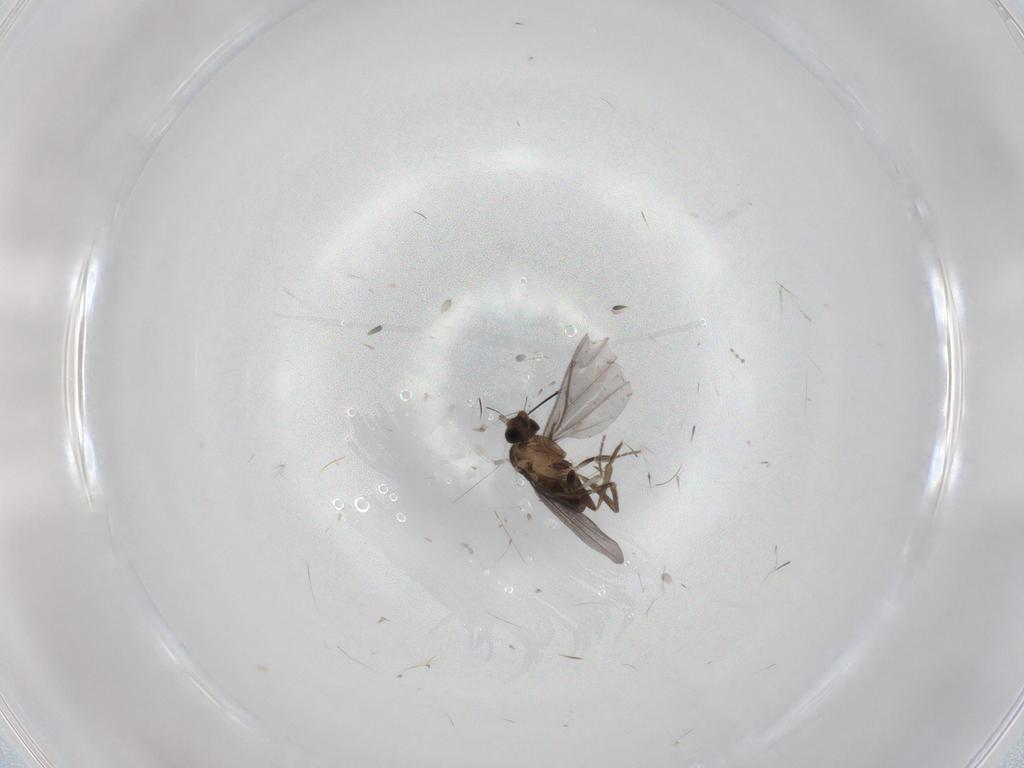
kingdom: Animalia
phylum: Arthropoda
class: Insecta
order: Diptera
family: Phoridae
